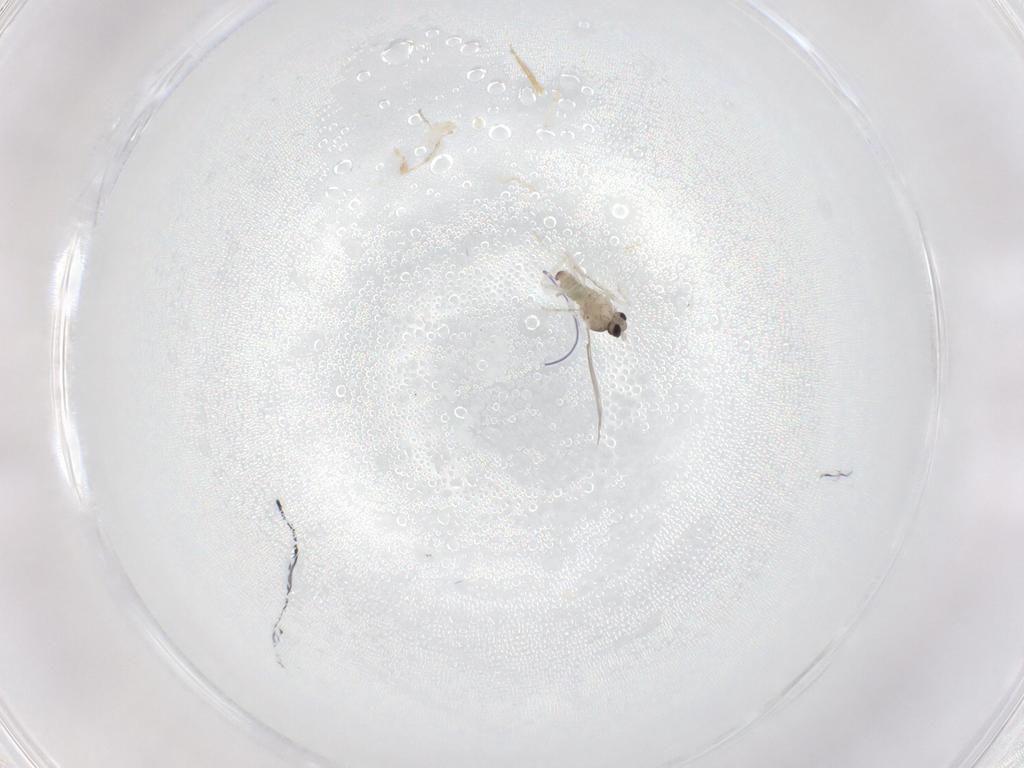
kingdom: Animalia
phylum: Arthropoda
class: Insecta
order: Diptera
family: Cecidomyiidae
